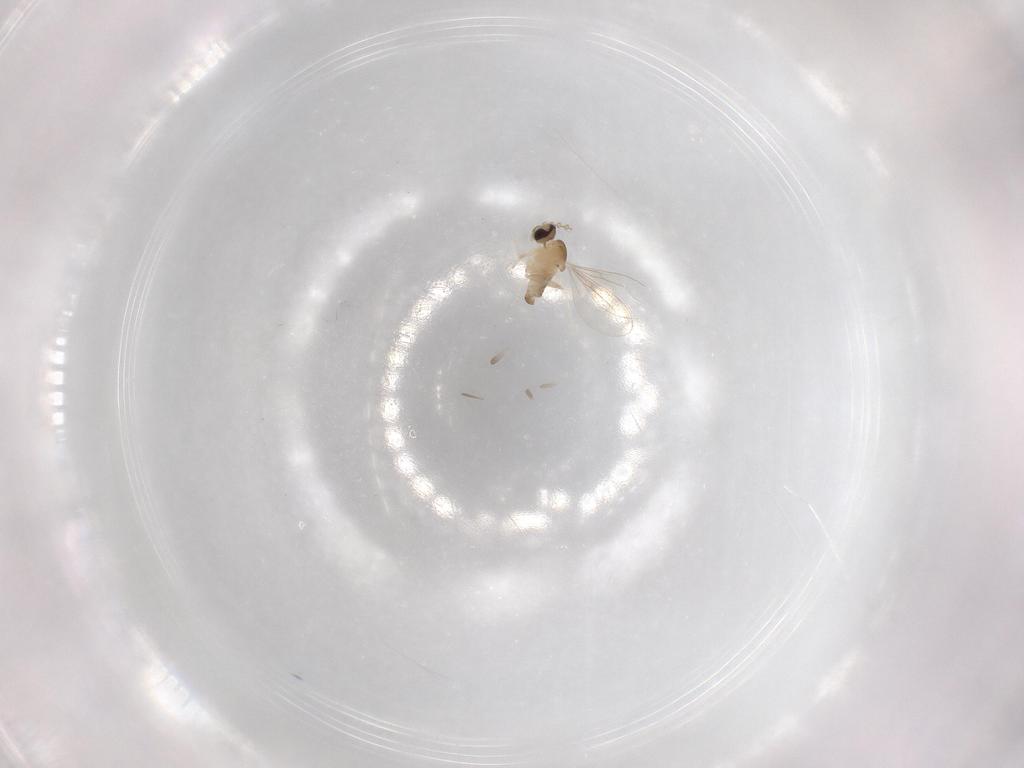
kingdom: Animalia
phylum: Arthropoda
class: Insecta
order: Diptera
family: Cecidomyiidae
